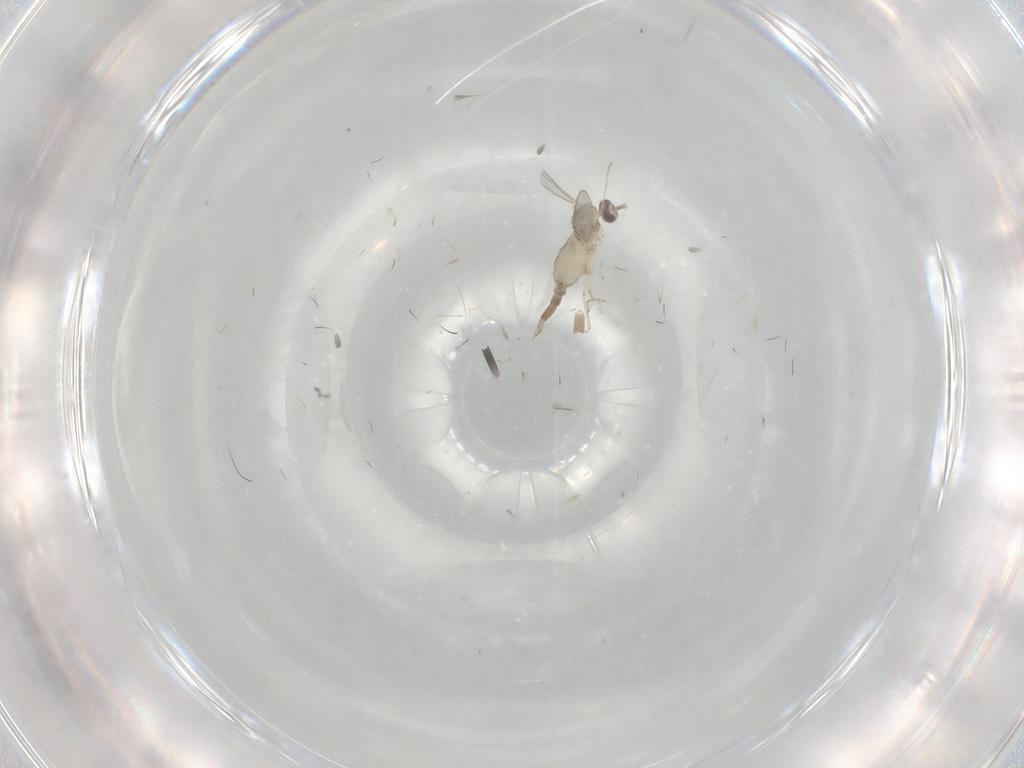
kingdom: Animalia
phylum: Arthropoda
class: Insecta
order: Diptera
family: Cecidomyiidae
